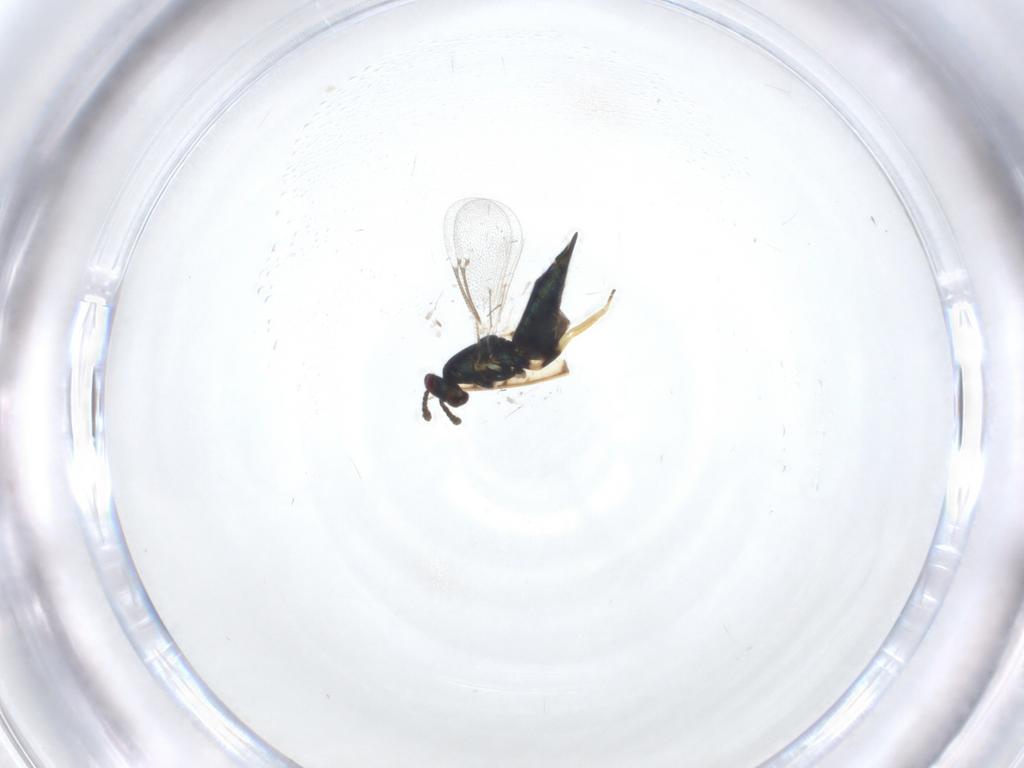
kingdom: Animalia
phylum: Arthropoda
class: Insecta
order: Hymenoptera
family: Eulophidae
